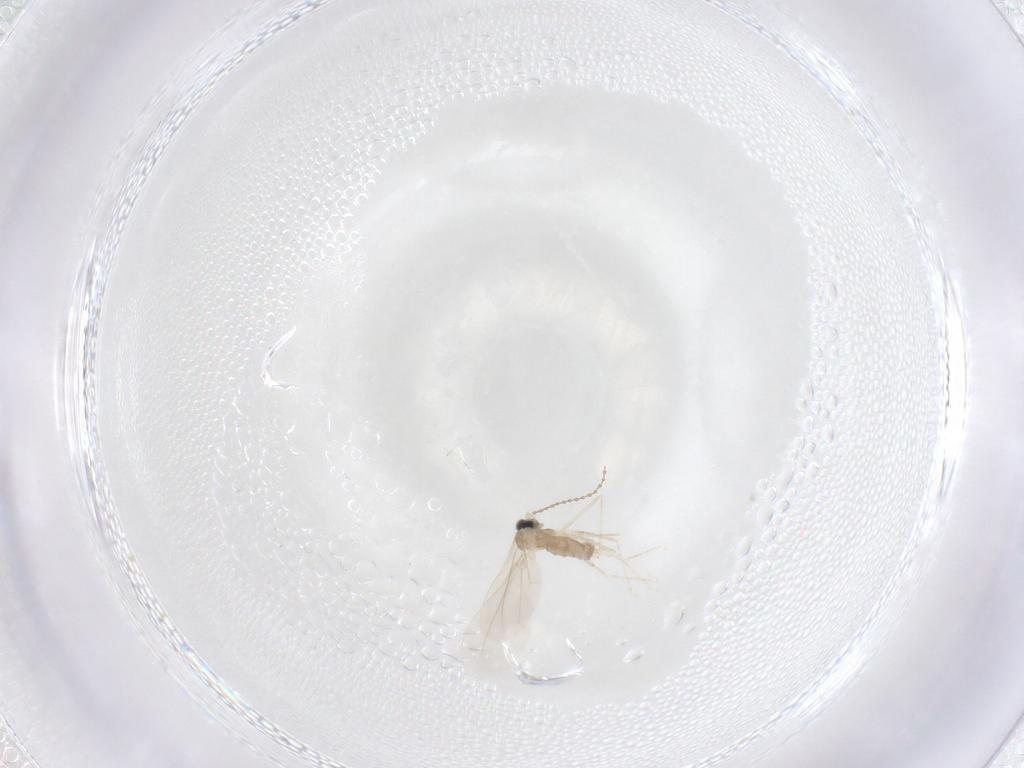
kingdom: Animalia
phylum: Arthropoda
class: Insecta
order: Diptera
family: Cecidomyiidae
